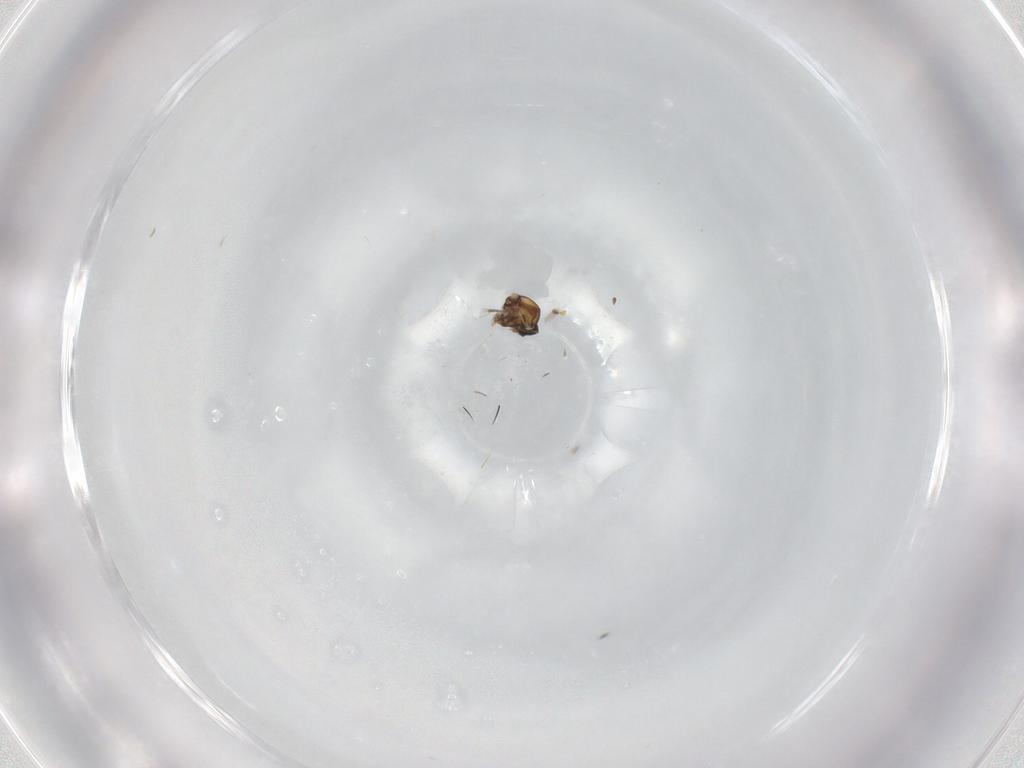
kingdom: Animalia
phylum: Arthropoda
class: Insecta
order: Diptera
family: Ceratopogonidae
